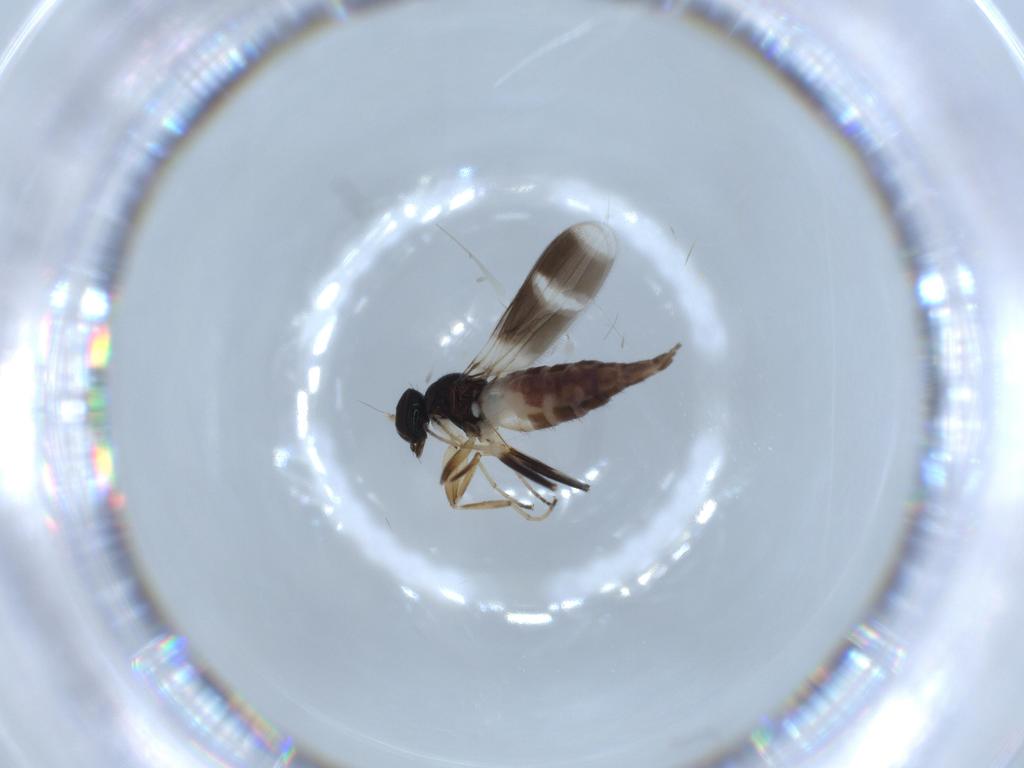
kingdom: Animalia
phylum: Arthropoda
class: Insecta
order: Diptera
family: Hybotidae
